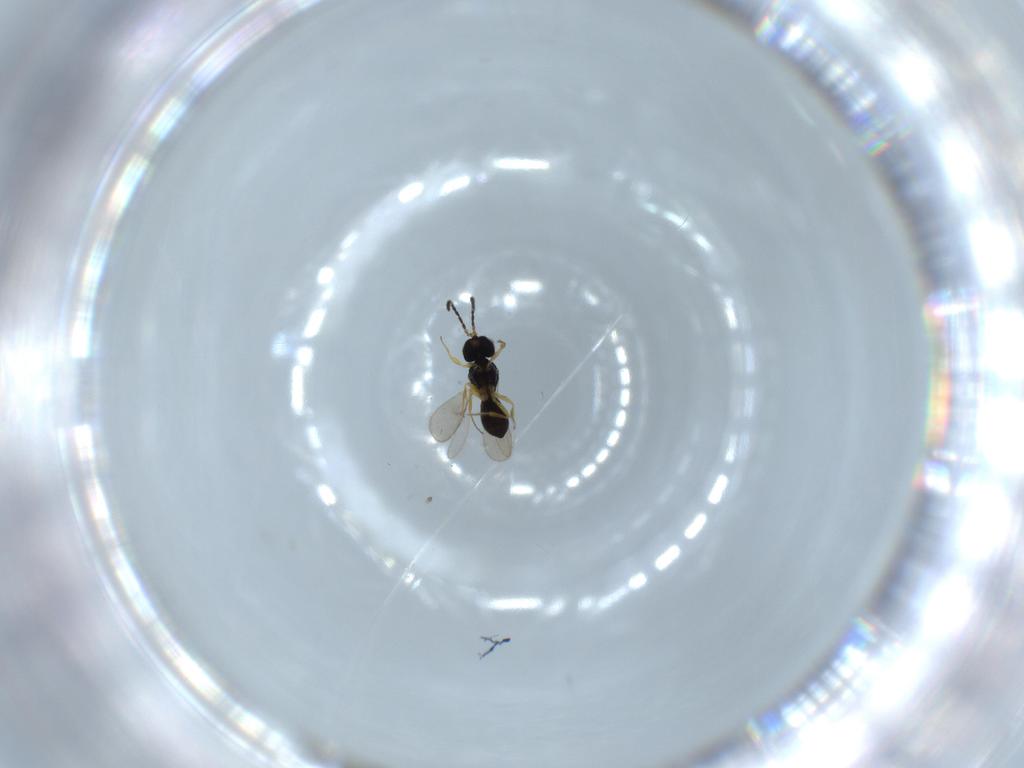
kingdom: Animalia
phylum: Arthropoda
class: Insecta
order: Hymenoptera
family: Scelionidae
